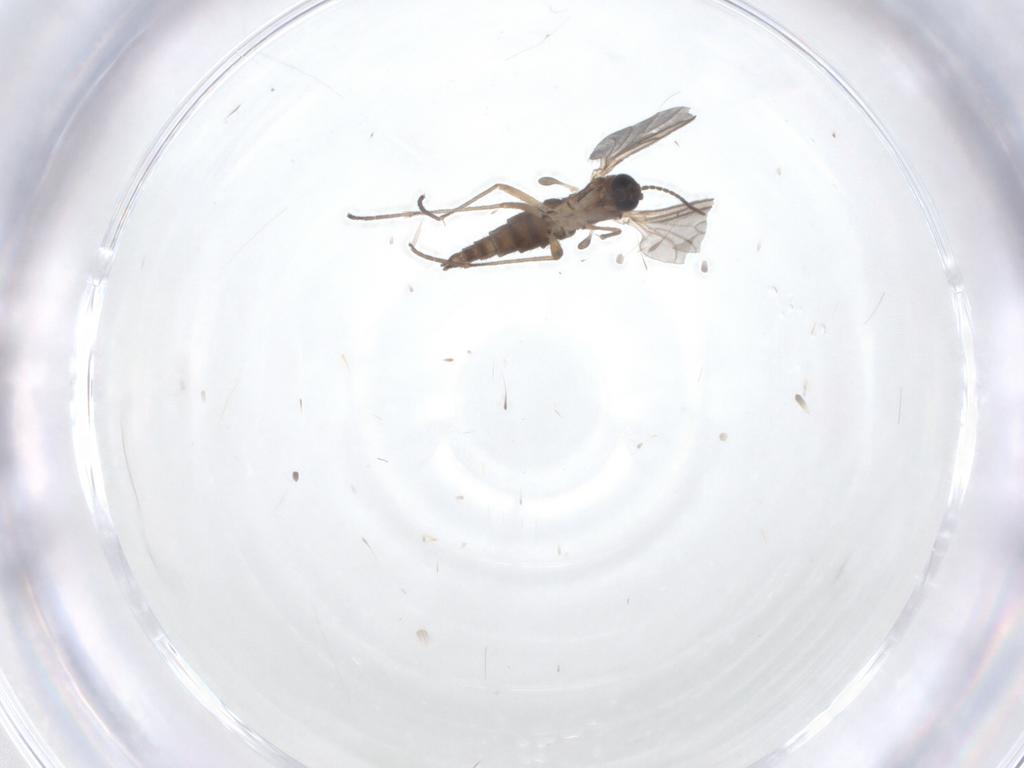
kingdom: Animalia
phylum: Arthropoda
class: Insecta
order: Diptera
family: Sciaridae
